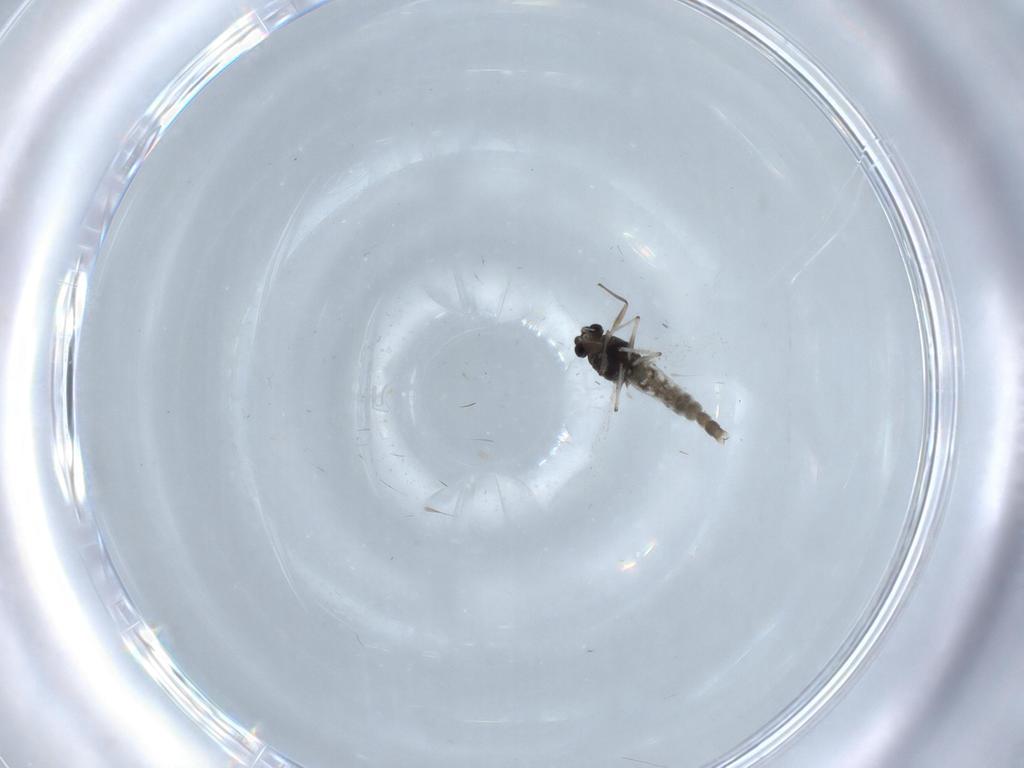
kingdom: Animalia
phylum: Arthropoda
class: Insecta
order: Diptera
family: Chironomidae
